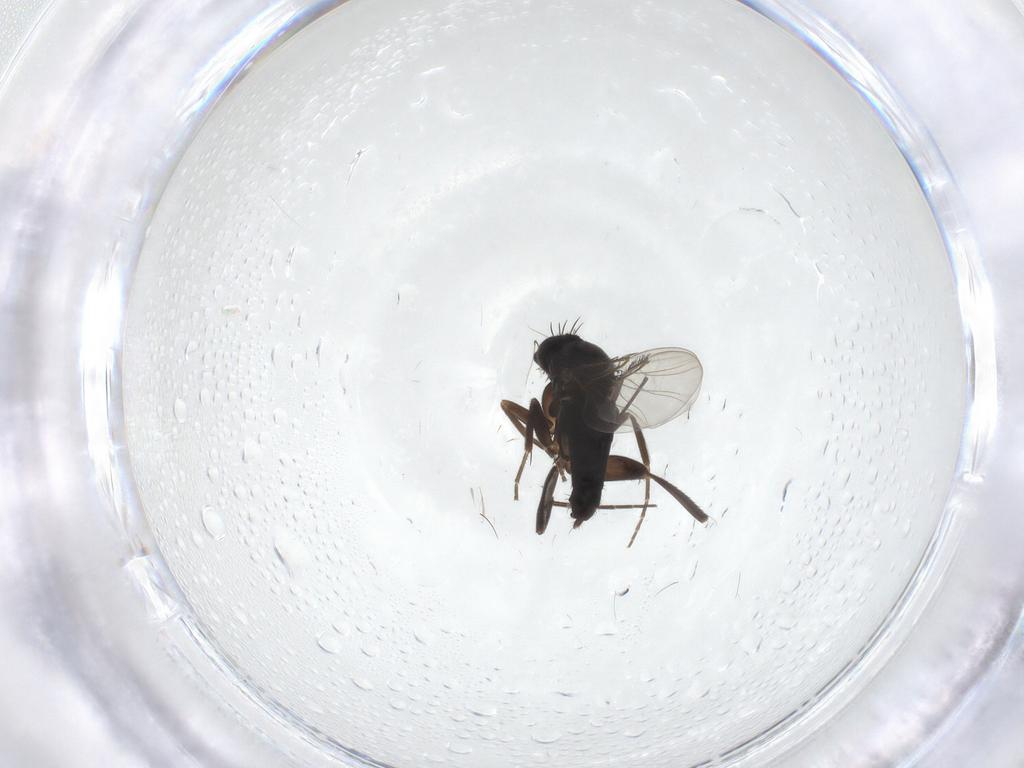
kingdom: Animalia
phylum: Arthropoda
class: Insecta
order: Diptera
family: Phoridae
